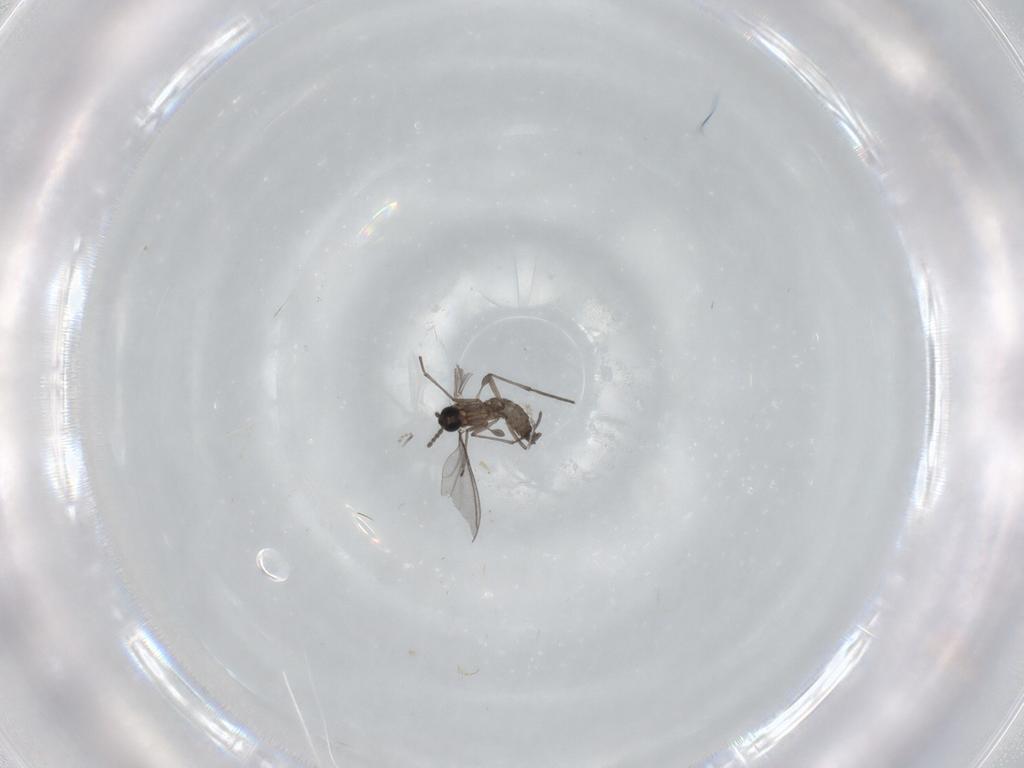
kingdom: Animalia
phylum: Arthropoda
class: Insecta
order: Diptera
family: Sciaridae
